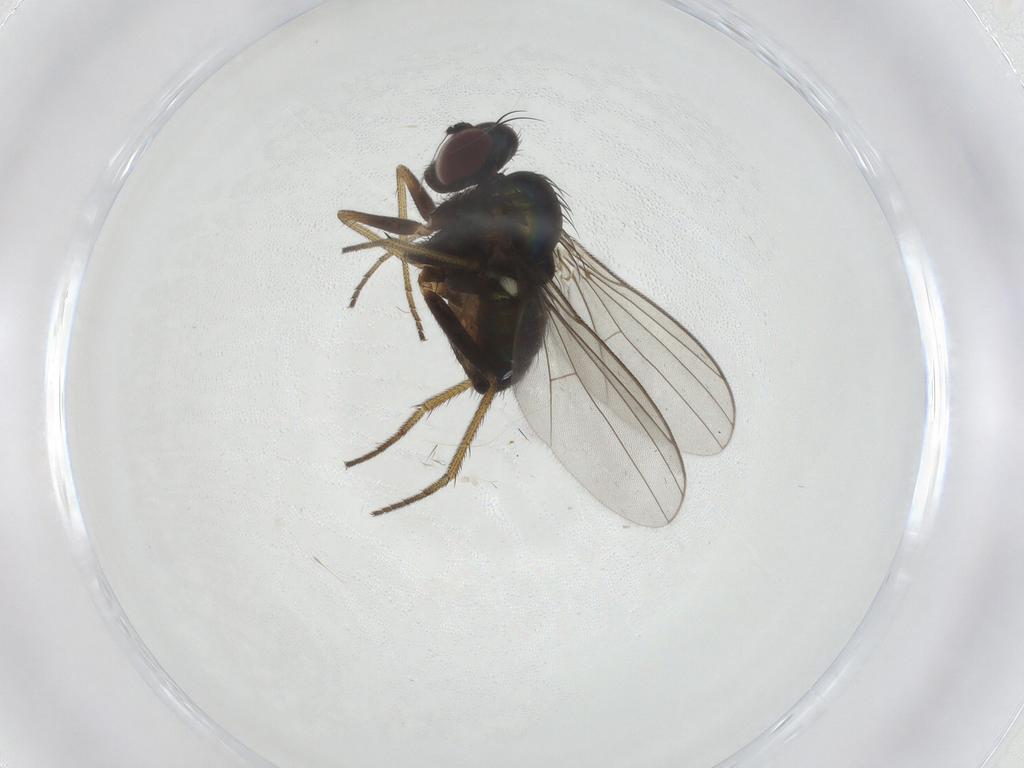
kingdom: Animalia
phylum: Arthropoda
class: Insecta
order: Diptera
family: Dolichopodidae
